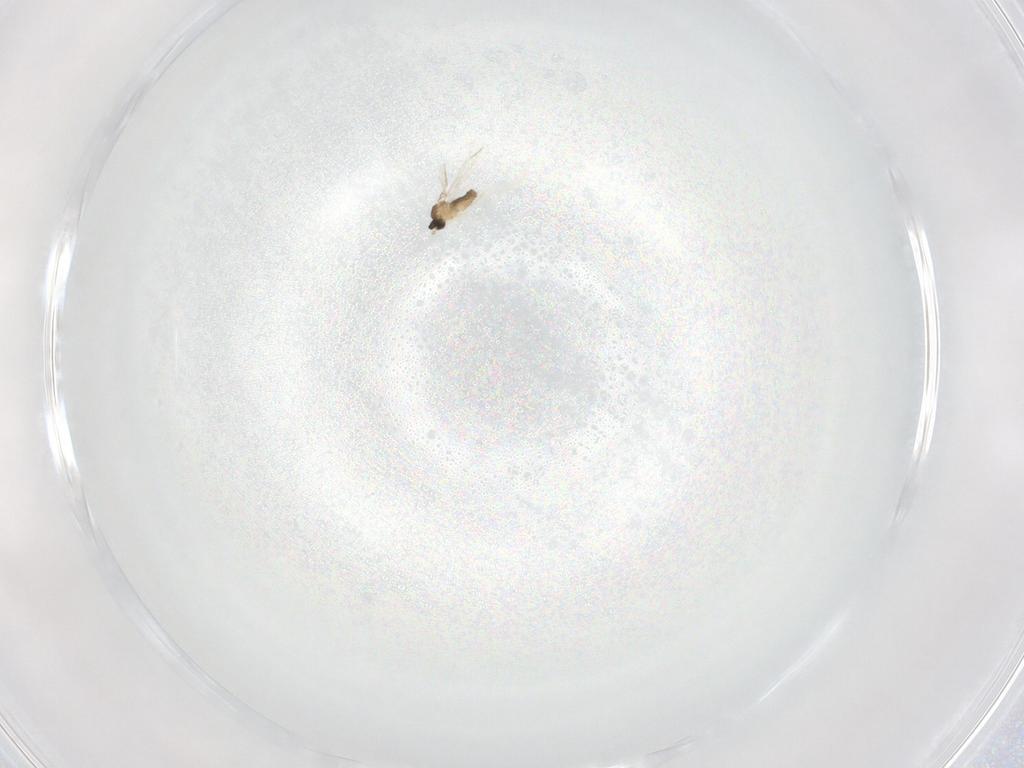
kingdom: Animalia
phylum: Arthropoda
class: Insecta
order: Diptera
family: Cecidomyiidae
